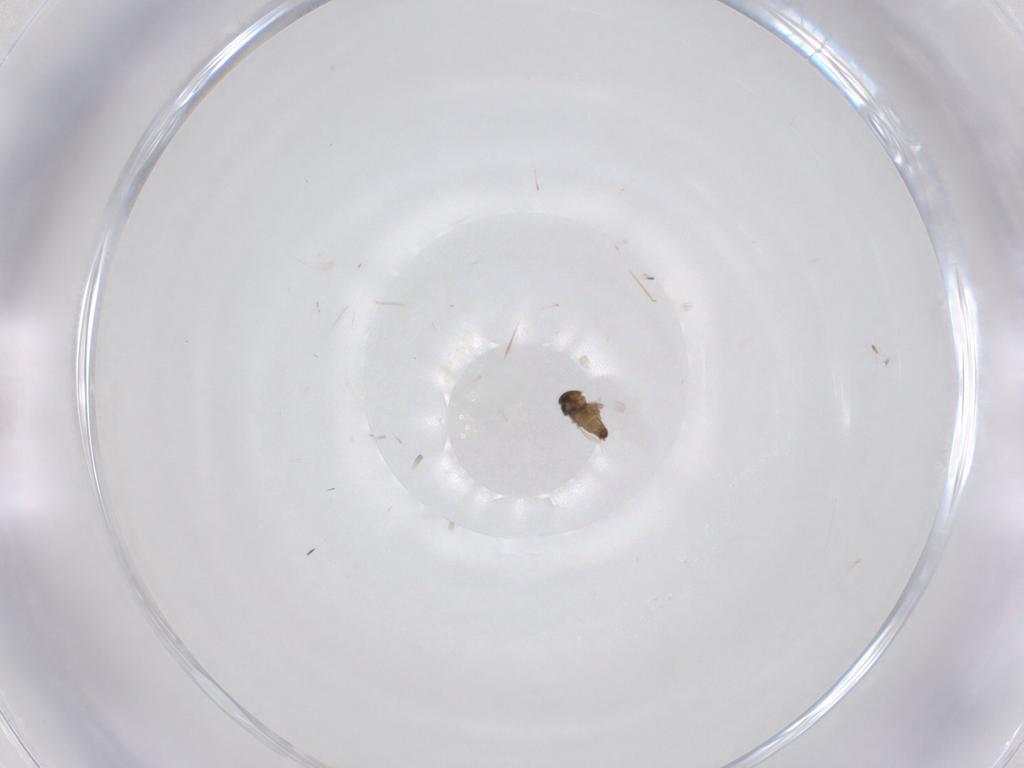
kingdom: Animalia
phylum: Arthropoda
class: Insecta
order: Diptera
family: Cecidomyiidae
